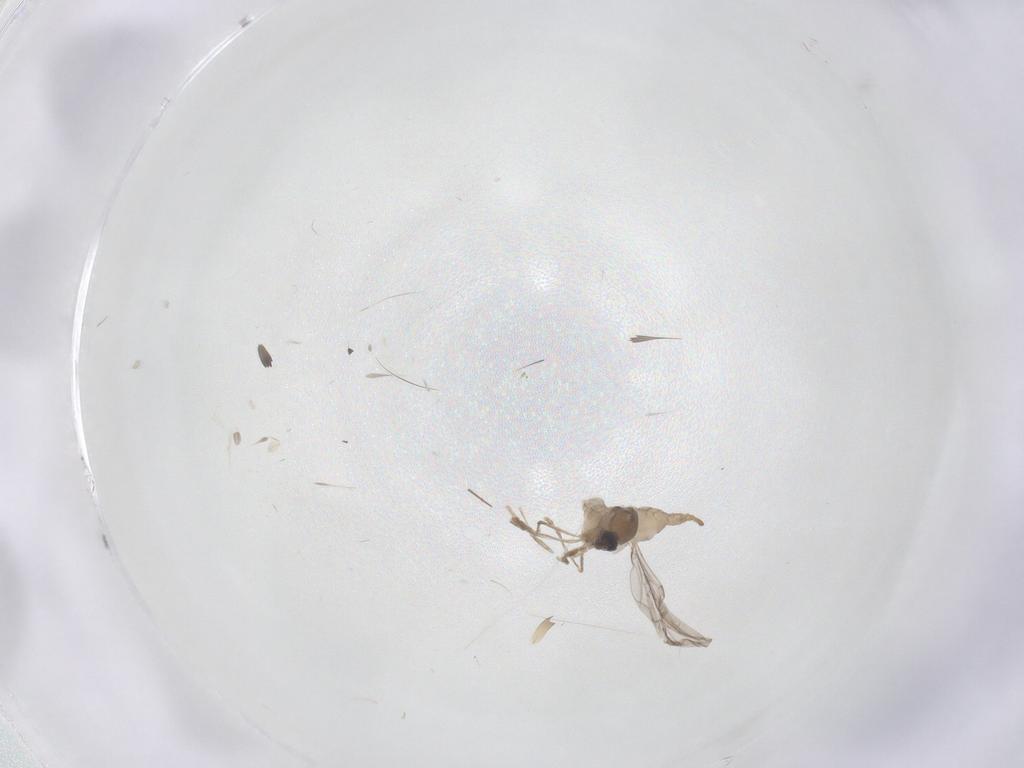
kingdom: Animalia
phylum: Arthropoda
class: Insecta
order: Diptera
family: Cecidomyiidae
